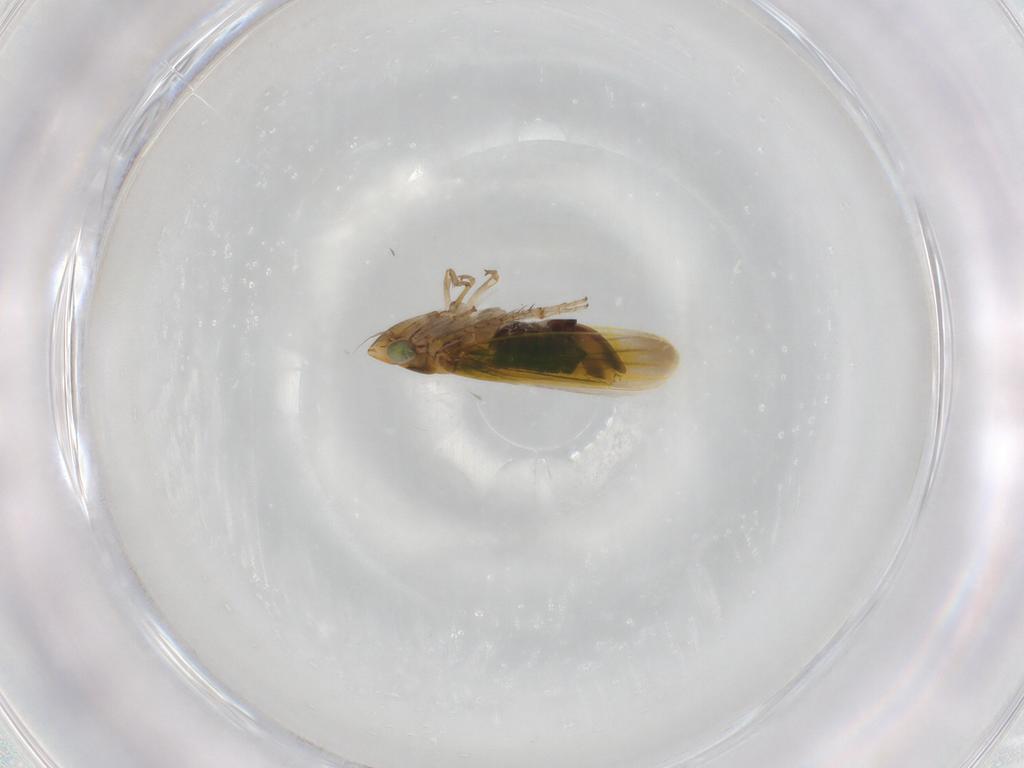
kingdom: Animalia
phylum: Arthropoda
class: Insecta
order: Hemiptera
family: Cicadellidae
